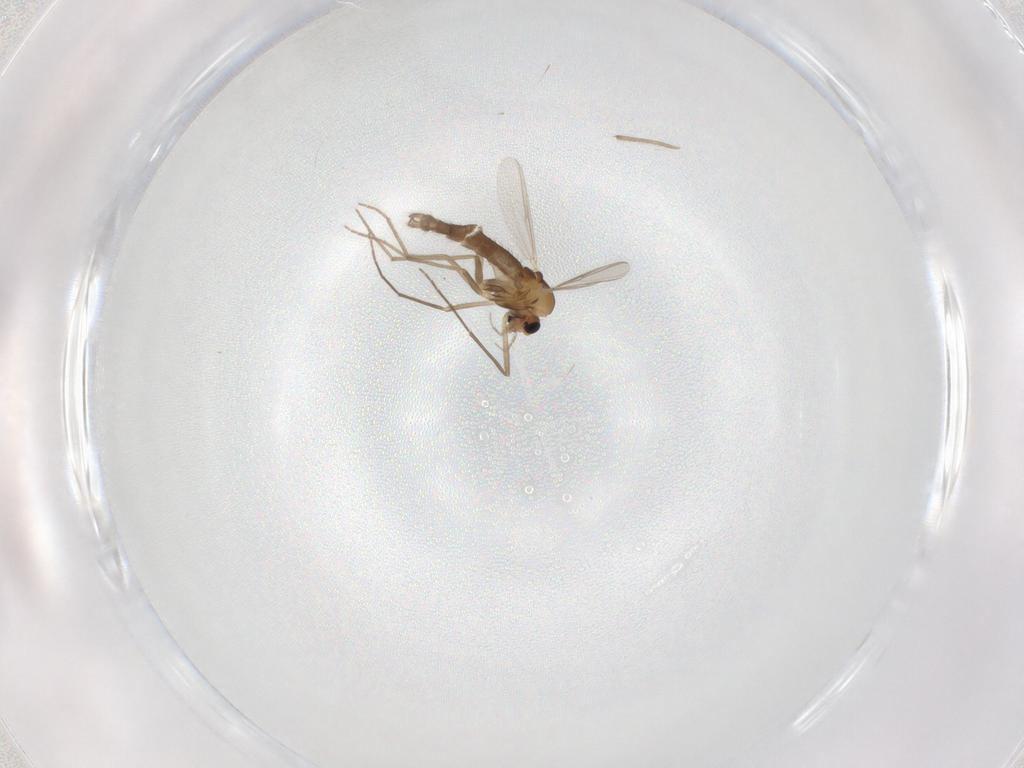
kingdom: Animalia
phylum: Arthropoda
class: Insecta
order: Diptera
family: Chironomidae
